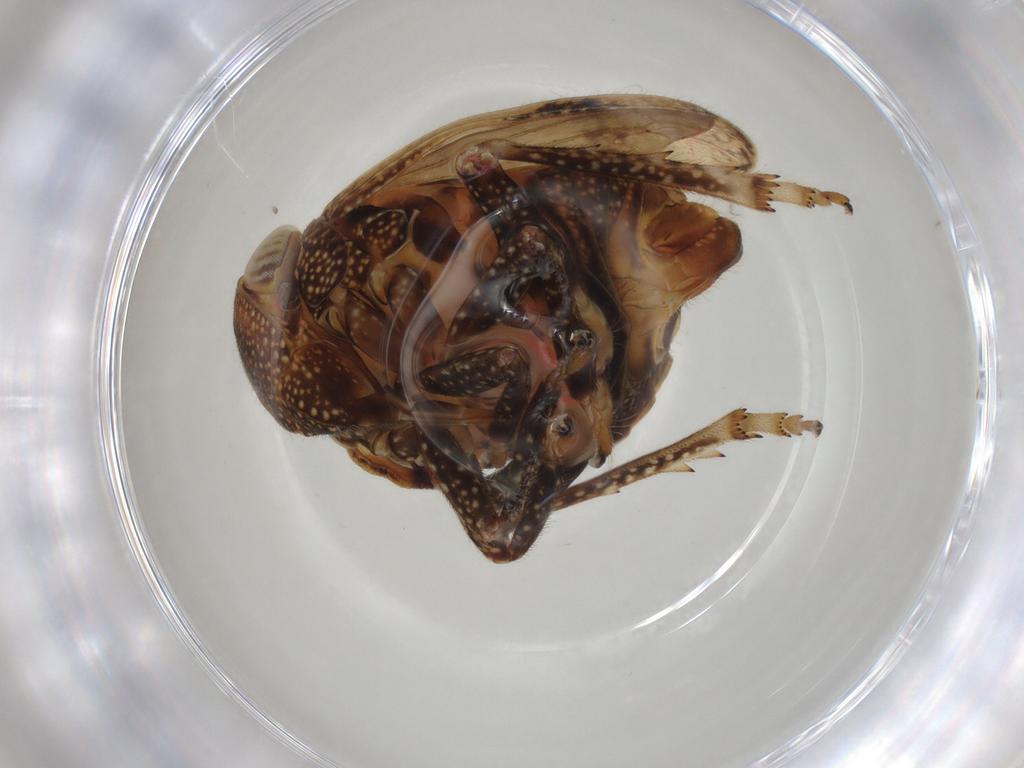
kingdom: Animalia
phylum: Arthropoda
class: Insecta
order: Hemiptera
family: Tropiduchidae
